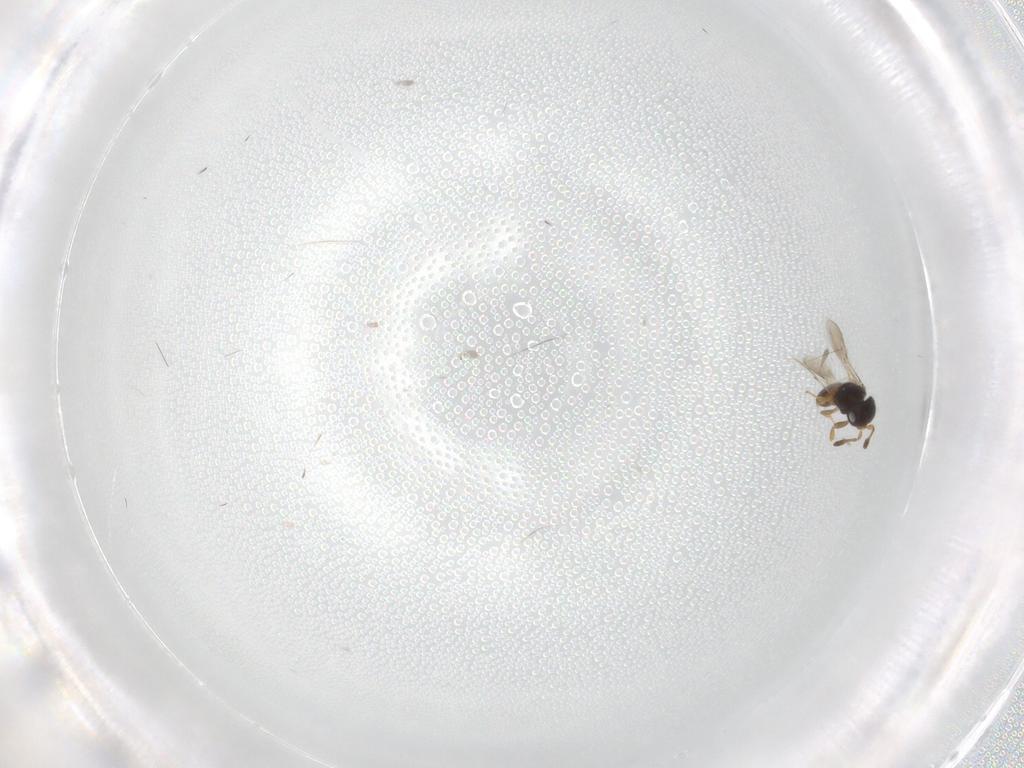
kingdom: Animalia
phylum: Arthropoda
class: Insecta
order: Hymenoptera
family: Scelionidae
